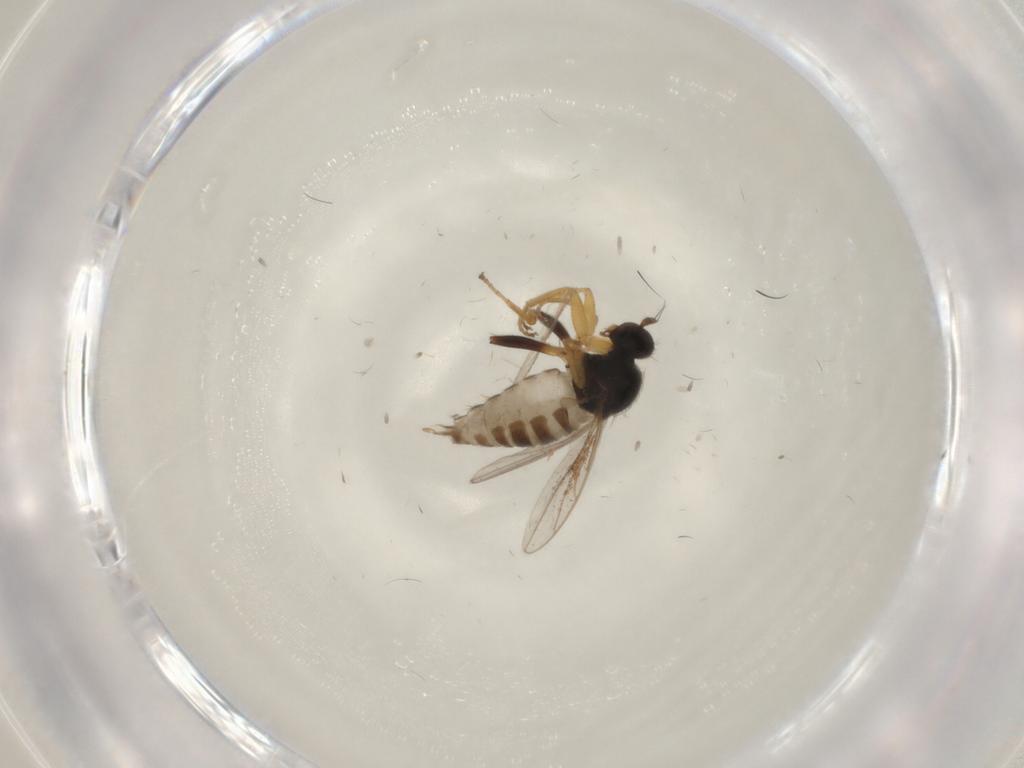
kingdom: Animalia
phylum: Arthropoda
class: Insecta
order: Diptera
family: Hybotidae
